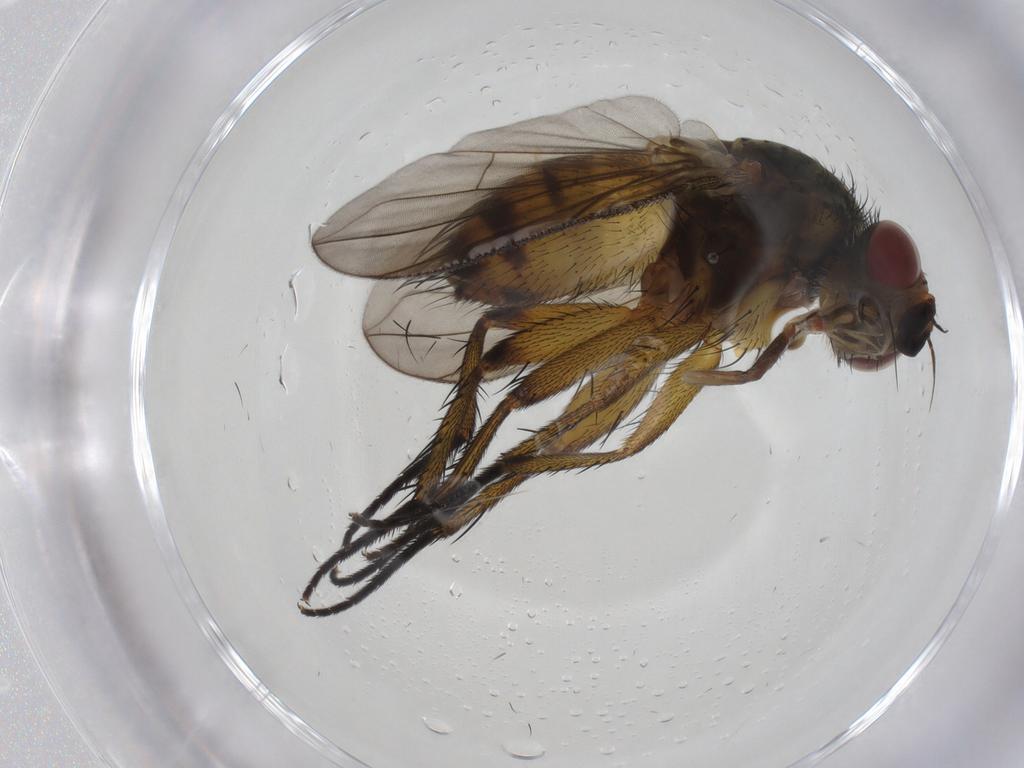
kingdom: Animalia
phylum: Arthropoda
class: Insecta
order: Diptera
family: Tachinidae
